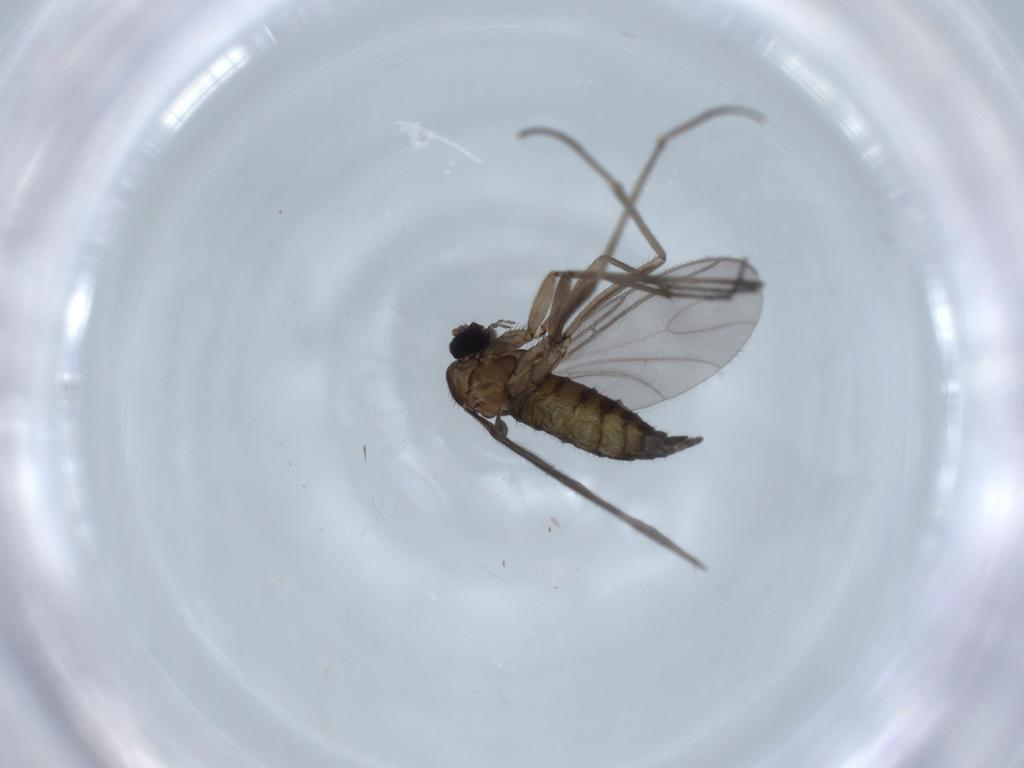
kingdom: Animalia
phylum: Arthropoda
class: Insecta
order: Diptera
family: Sciaridae
